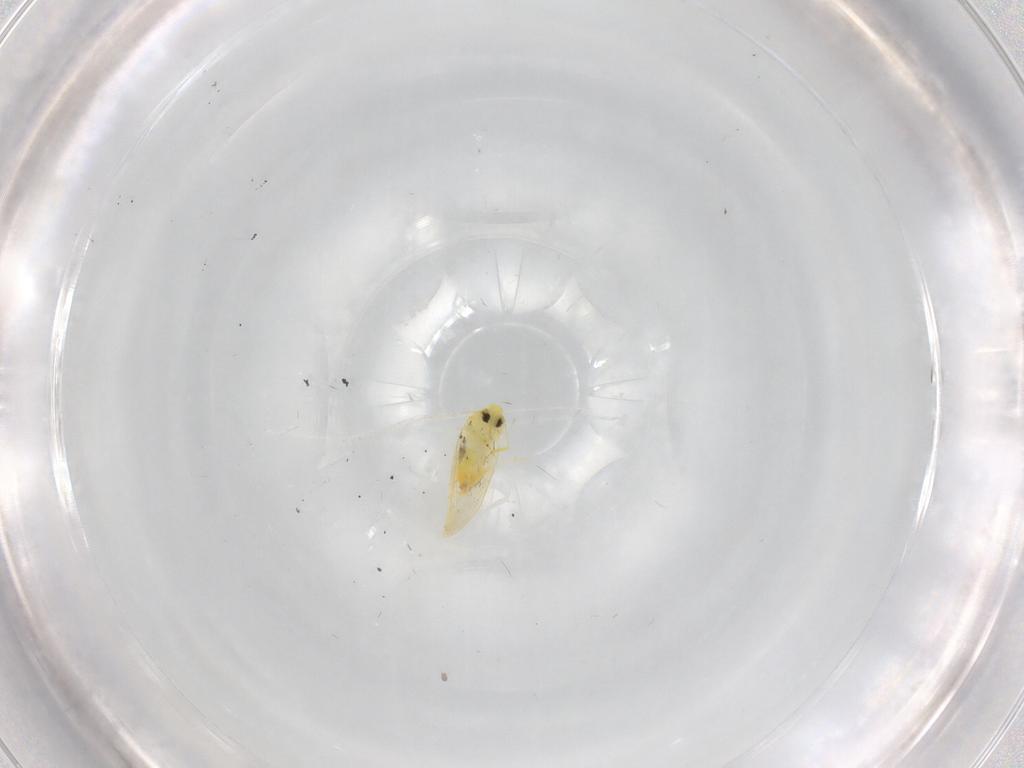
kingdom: Animalia
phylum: Arthropoda
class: Insecta
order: Hemiptera
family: Aleyrodidae
